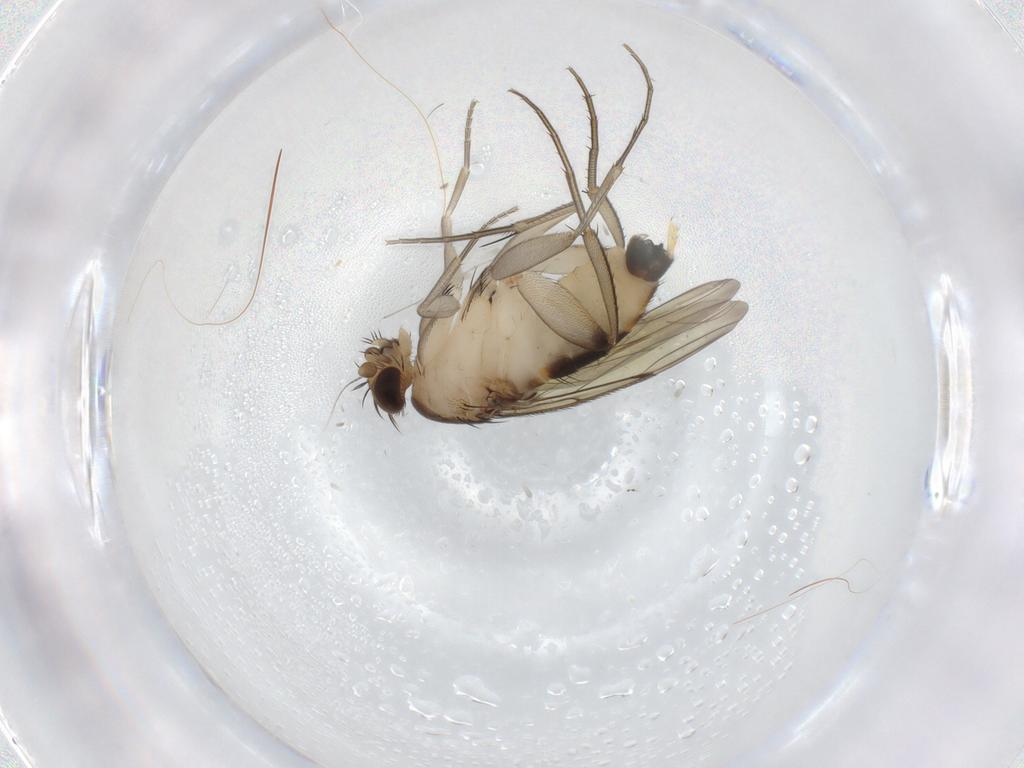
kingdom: Animalia
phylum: Arthropoda
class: Insecta
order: Diptera
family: Phoridae
